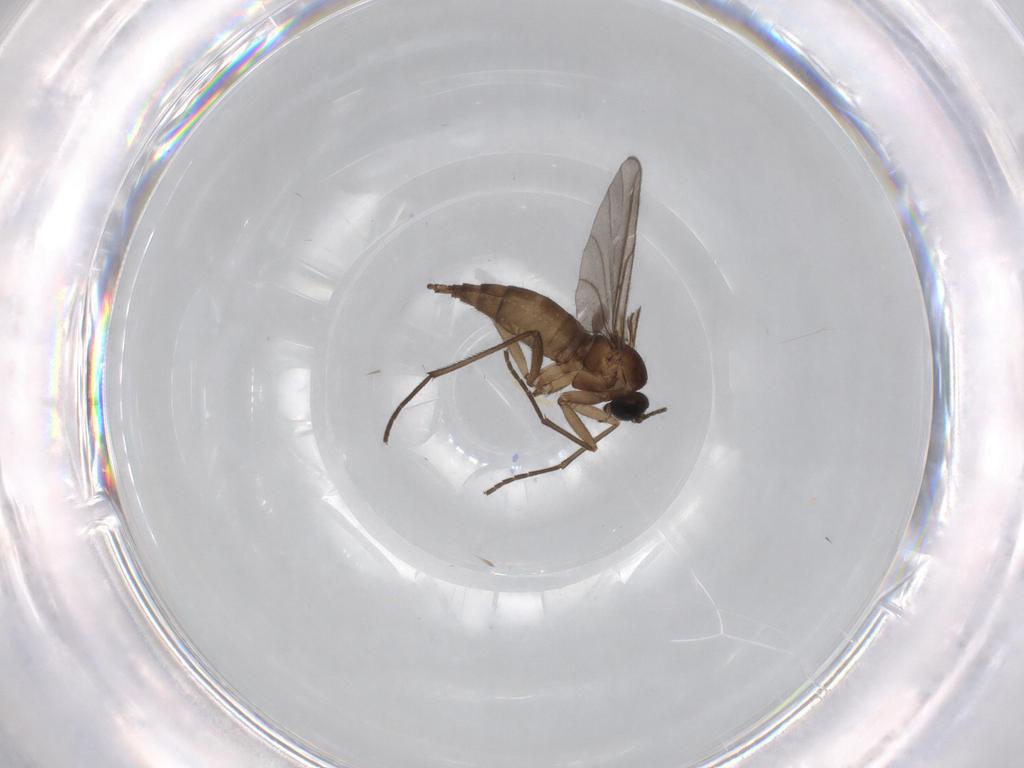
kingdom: Animalia
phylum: Arthropoda
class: Insecta
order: Diptera
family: Sciaridae
